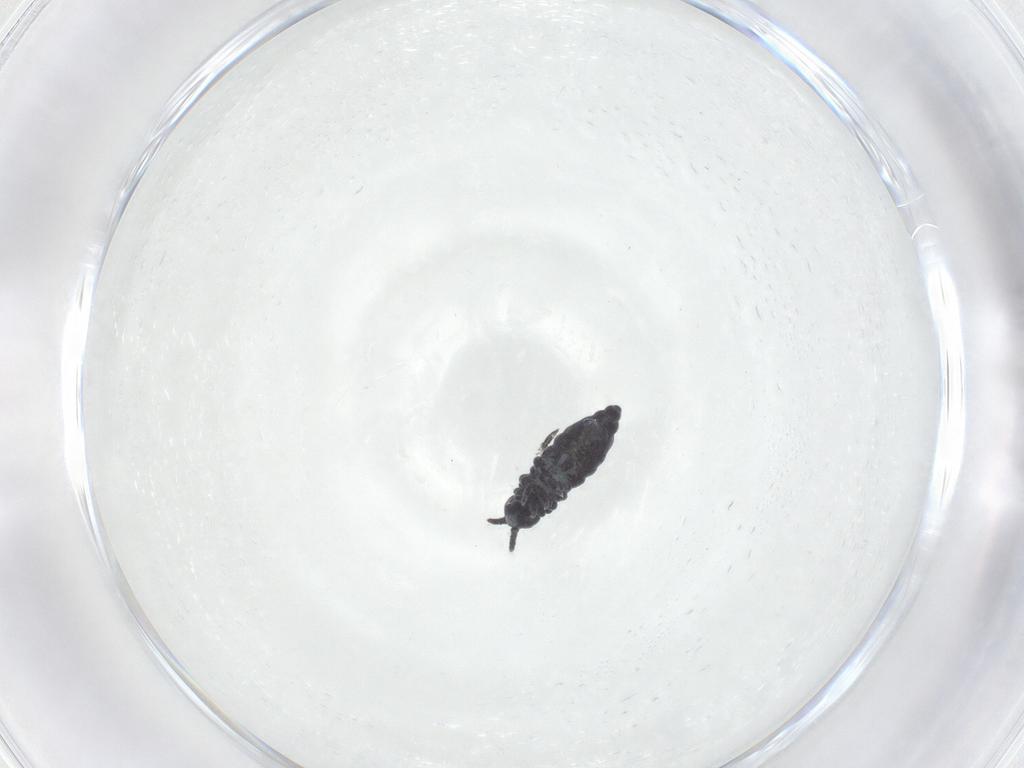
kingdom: Animalia
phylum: Arthropoda
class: Collembola
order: Poduromorpha
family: Hypogastruridae
